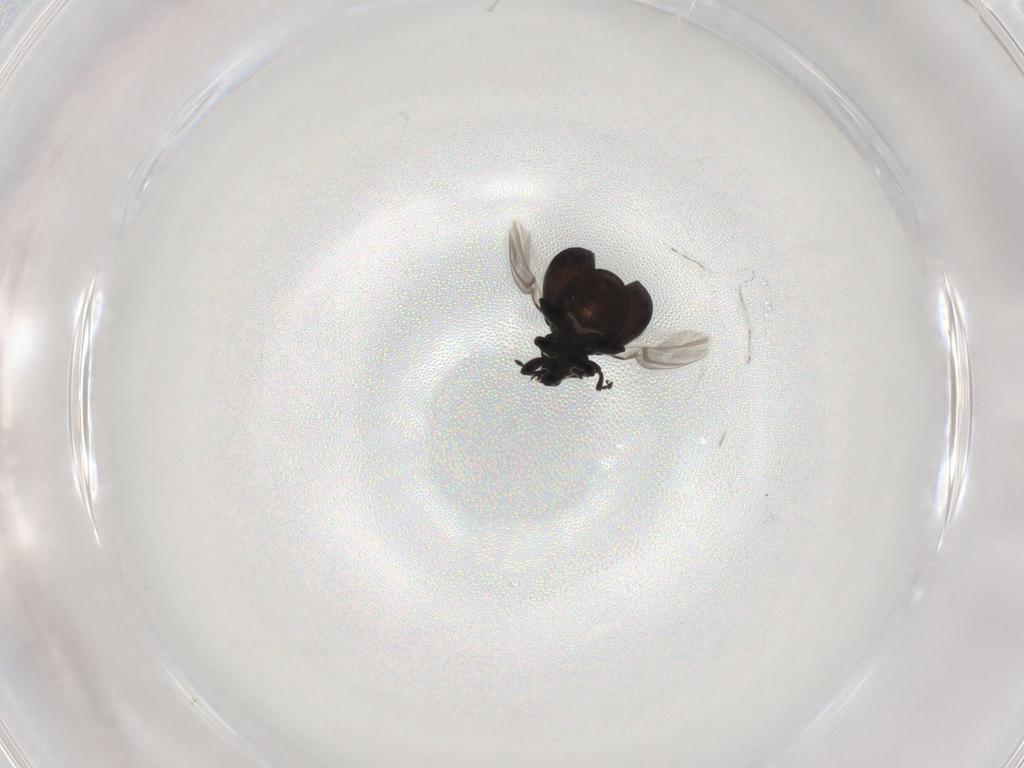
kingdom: Animalia
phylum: Arthropoda
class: Insecta
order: Coleoptera
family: Curculionidae
